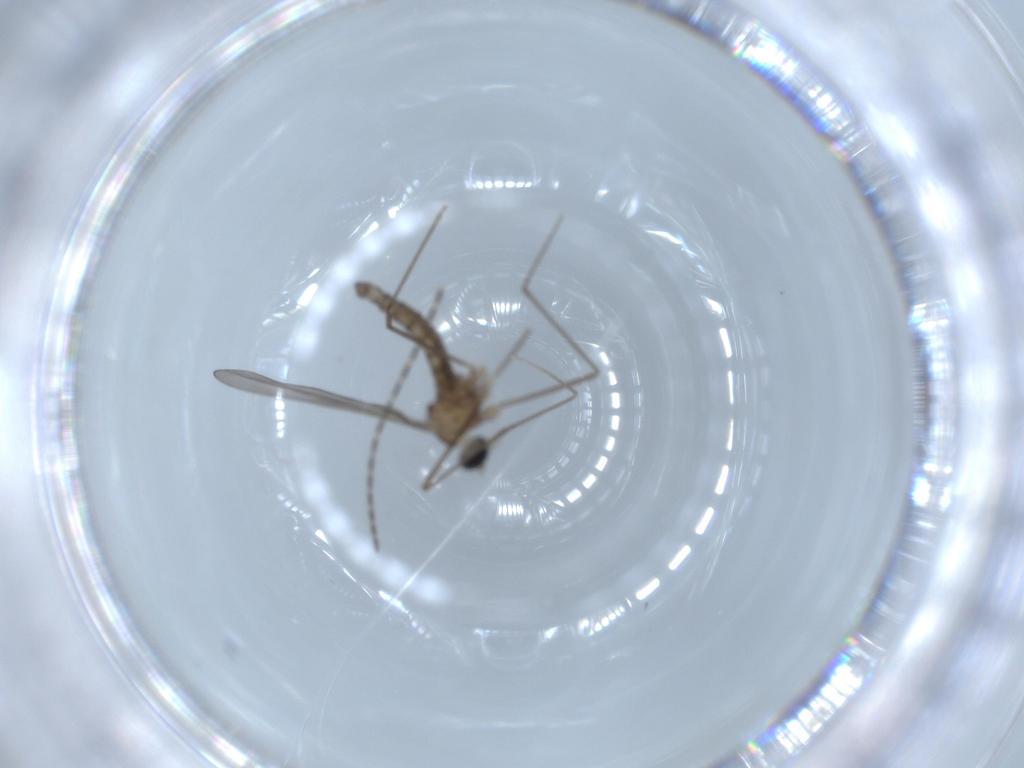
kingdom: Animalia
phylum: Arthropoda
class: Insecta
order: Diptera
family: Cecidomyiidae
